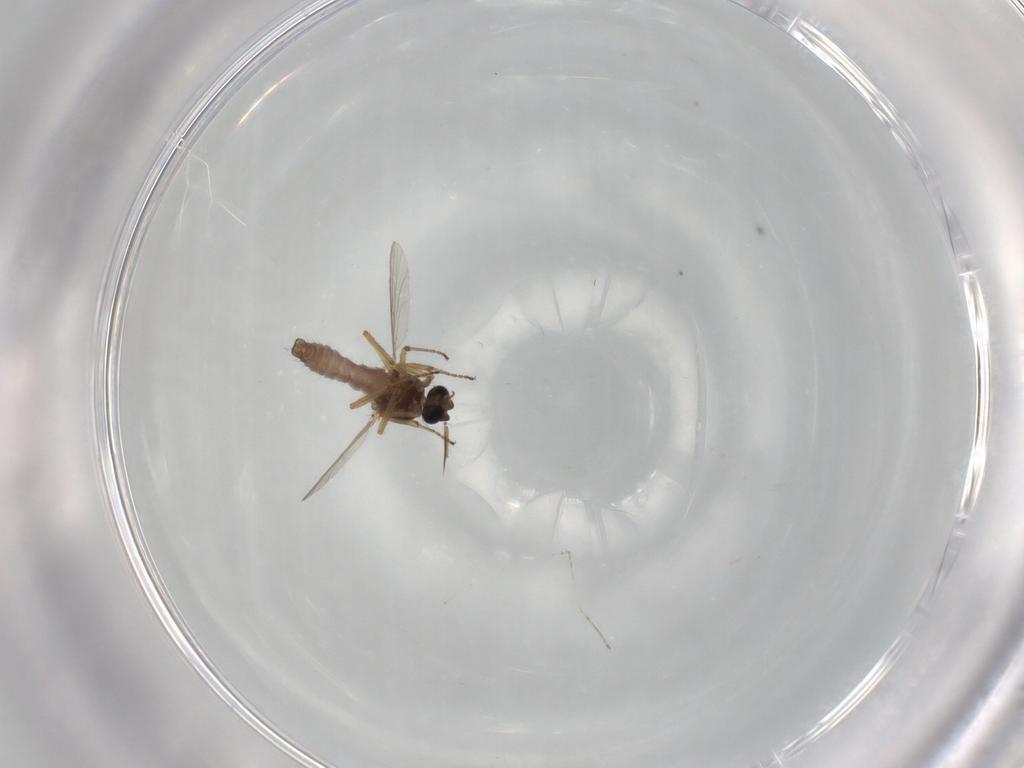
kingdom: Animalia
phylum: Arthropoda
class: Insecta
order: Diptera
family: Ceratopogonidae
